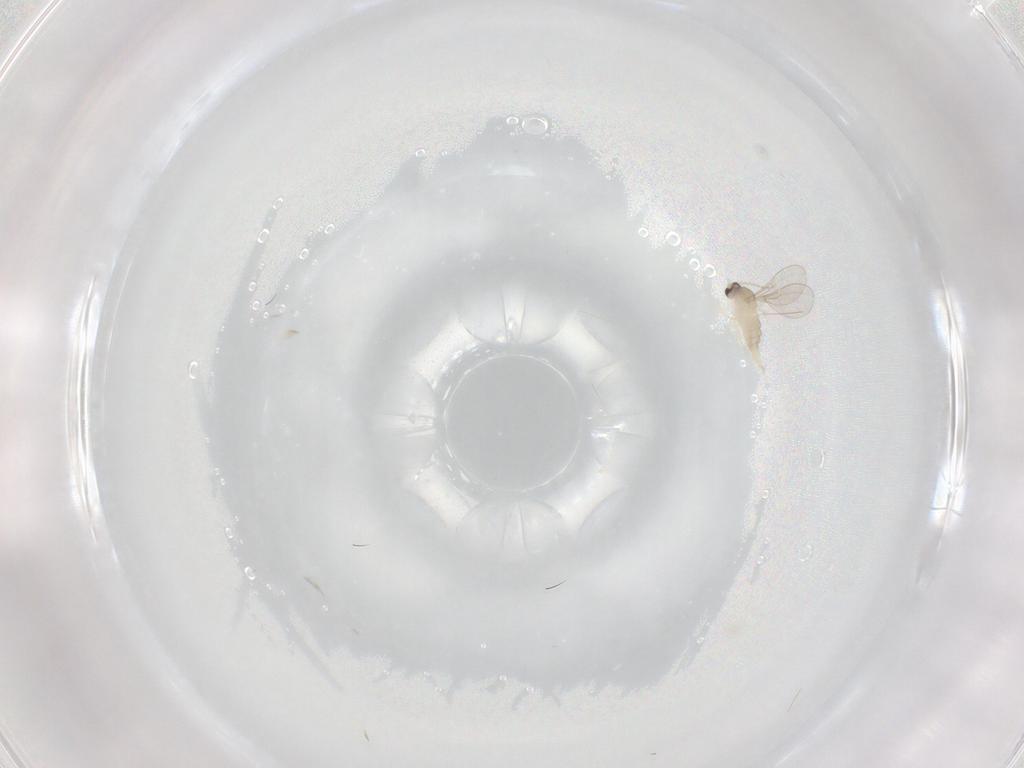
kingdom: Animalia
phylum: Arthropoda
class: Insecta
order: Diptera
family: Cecidomyiidae
